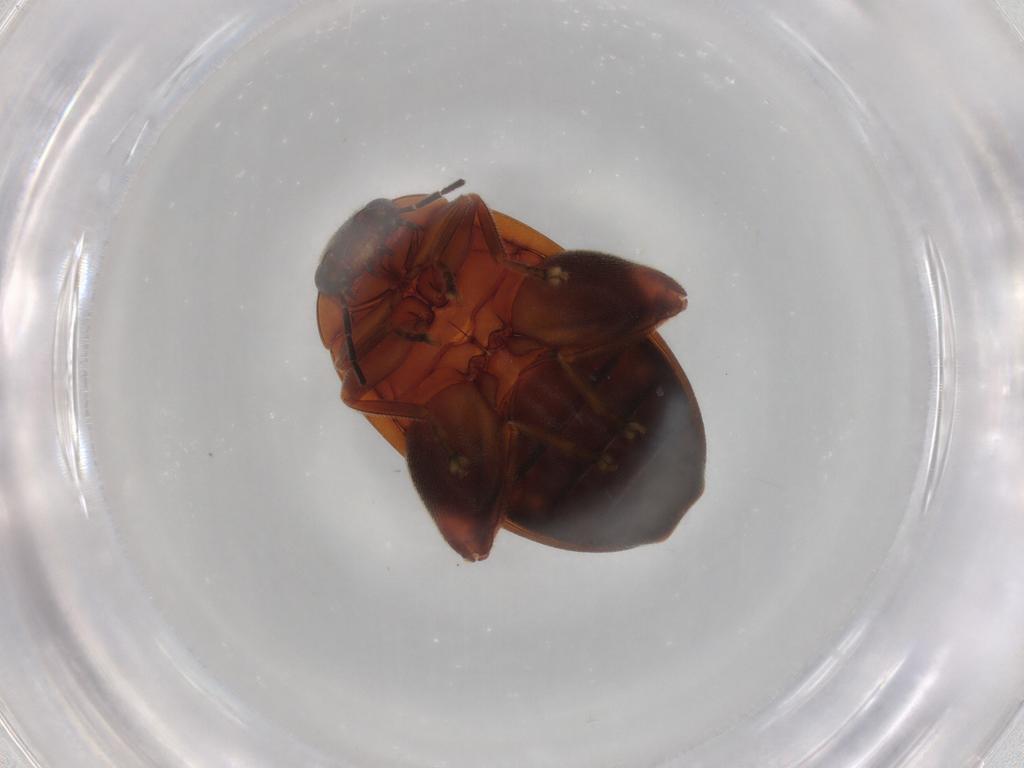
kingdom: Animalia
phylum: Arthropoda
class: Insecta
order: Coleoptera
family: Scirtidae
